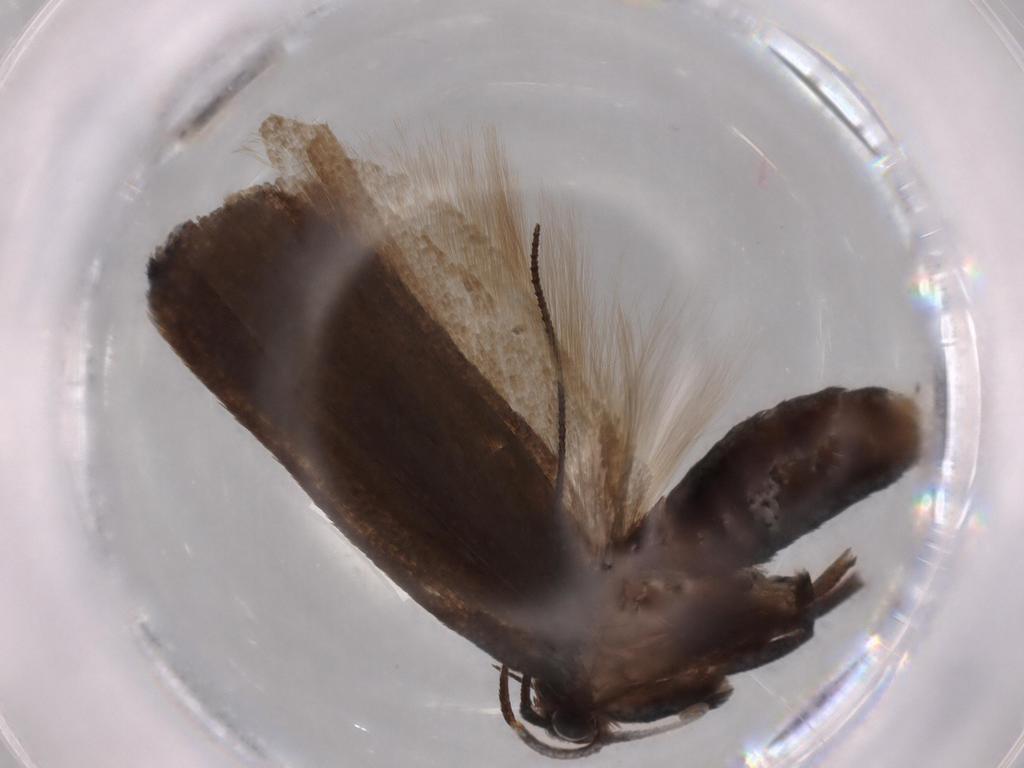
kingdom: Animalia
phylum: Arthropoda
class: Insecta
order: Lepidoptera
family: Gelechiidae
